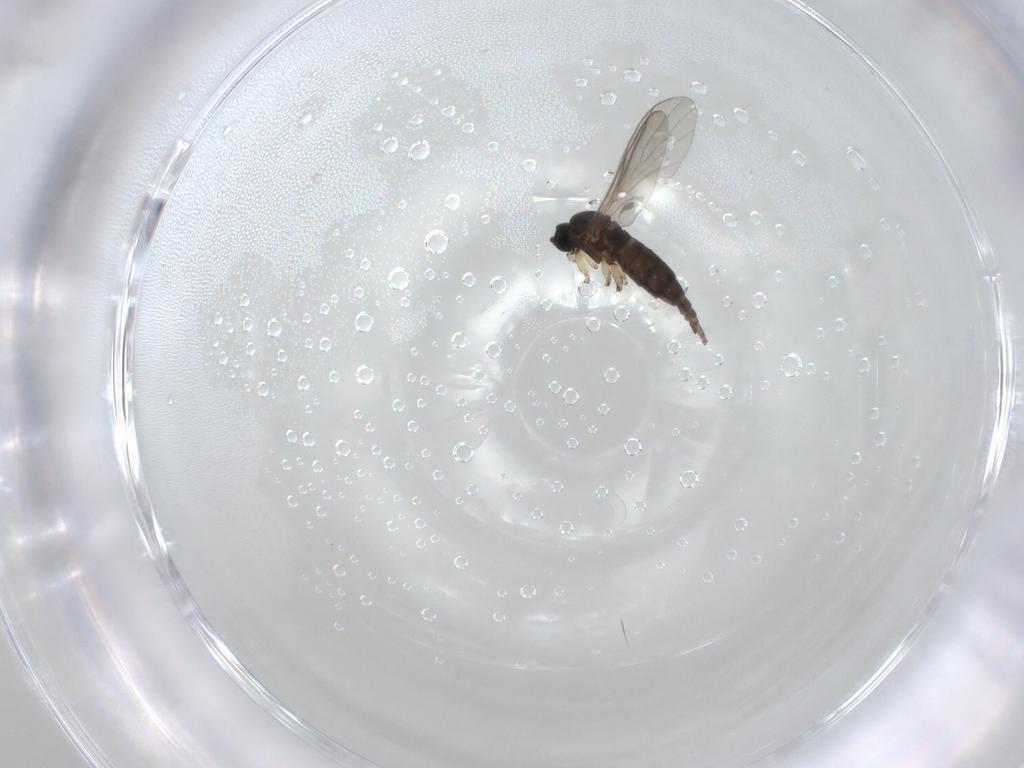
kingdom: Animalia
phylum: Arthropoda
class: Insecta
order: Diptera
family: Sciaridae
